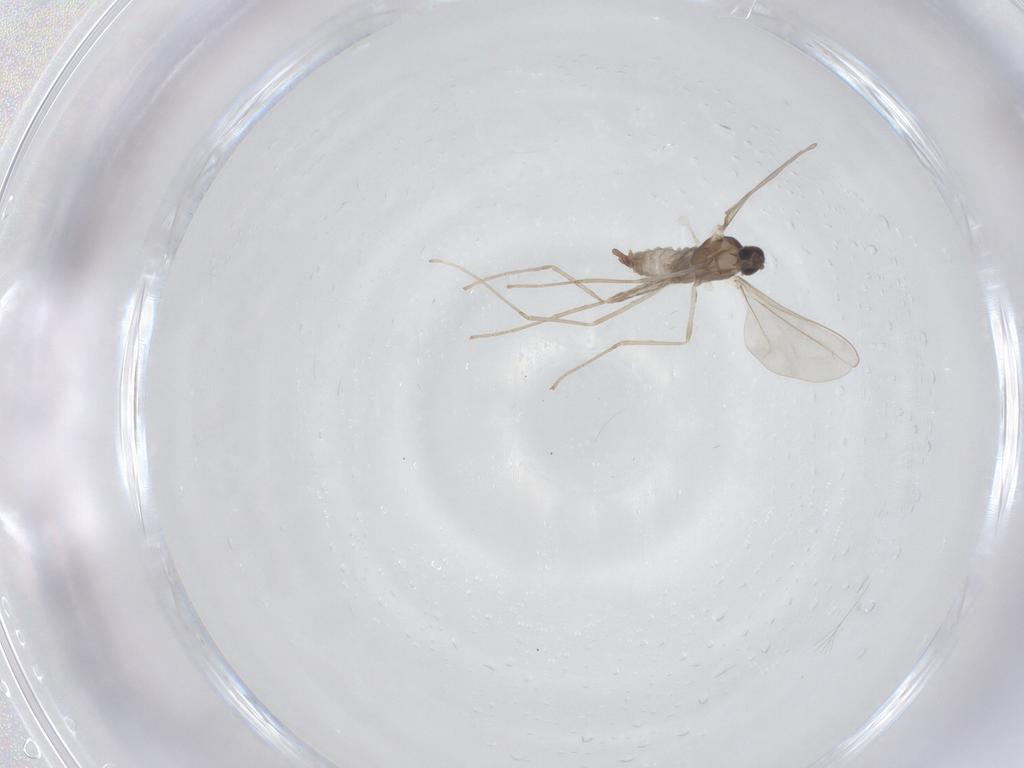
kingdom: Animalia
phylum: Arthropoda
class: Insecta
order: Diptera
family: Cecidomyiidae
